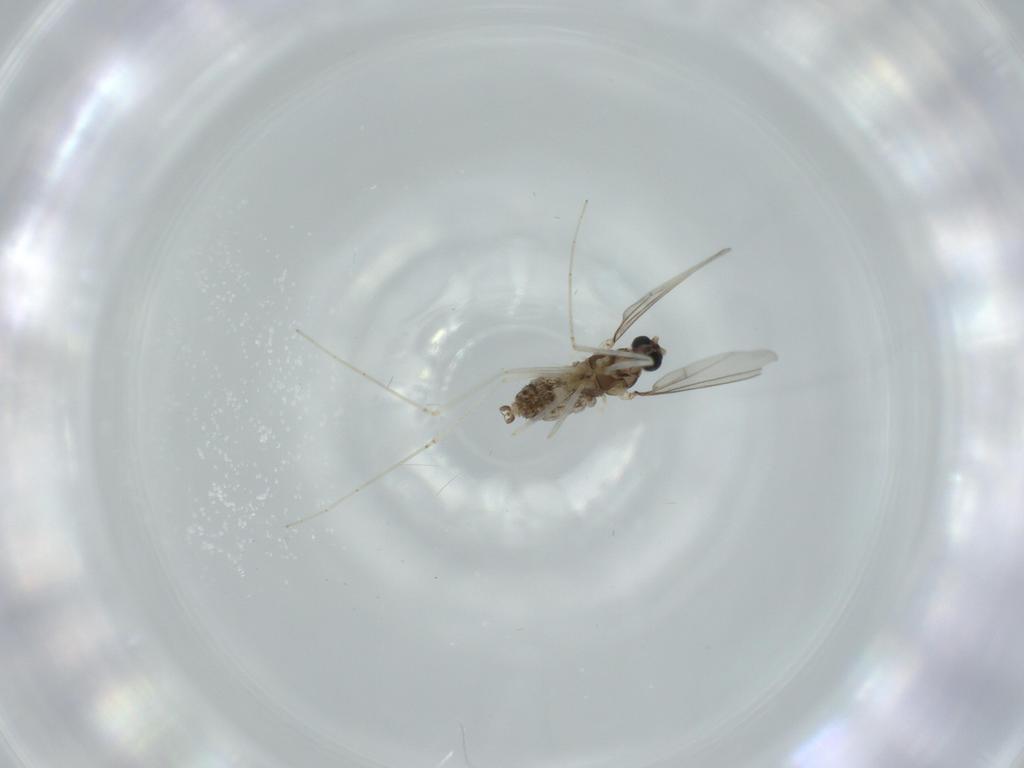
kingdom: Animalia
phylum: Arthropoda
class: Insecta
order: Diptera
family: Cecidomyiidae
